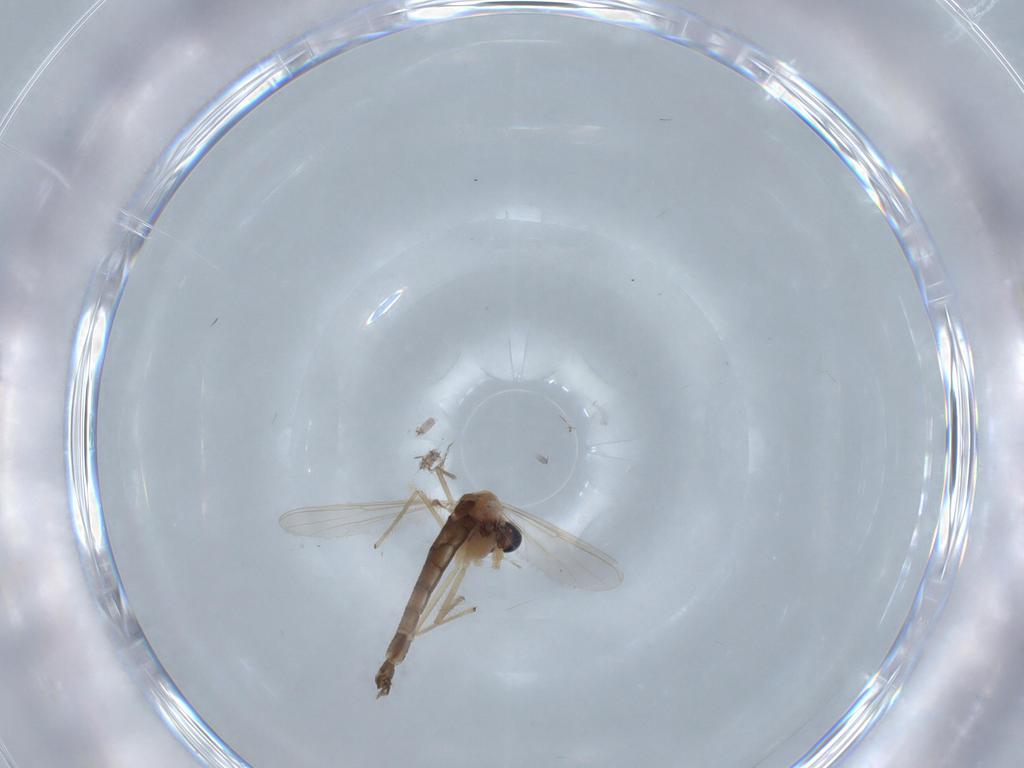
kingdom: Animalia
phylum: Arthropoda
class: Insecta
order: Diptera
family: Chironomidae
